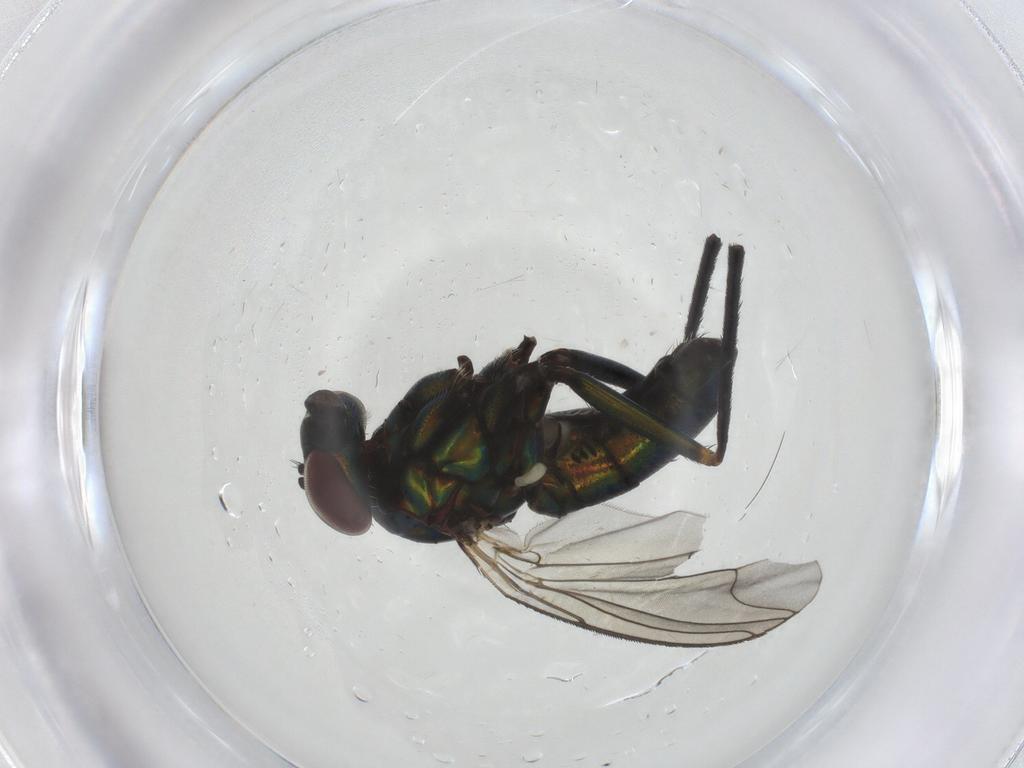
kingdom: Animalia
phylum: Arthropoda
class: Insecta
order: Diptera
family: Dolichopodidae
